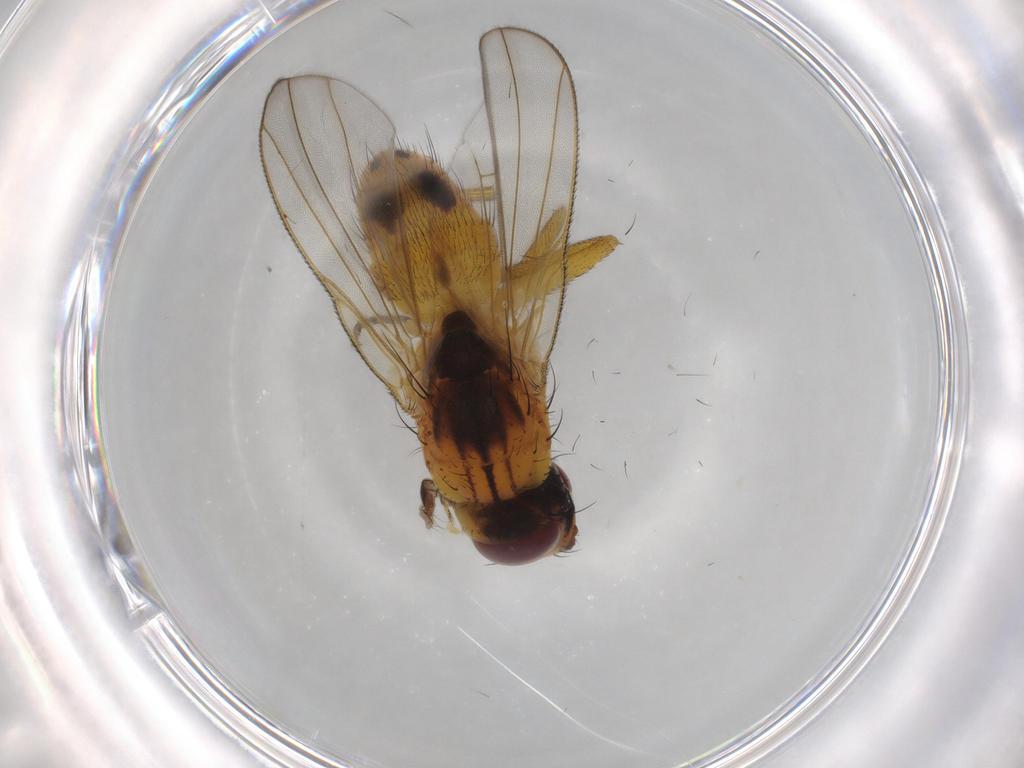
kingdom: Animalia
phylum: Arthropoda
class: Insecta
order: Diptera
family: Muscidae
